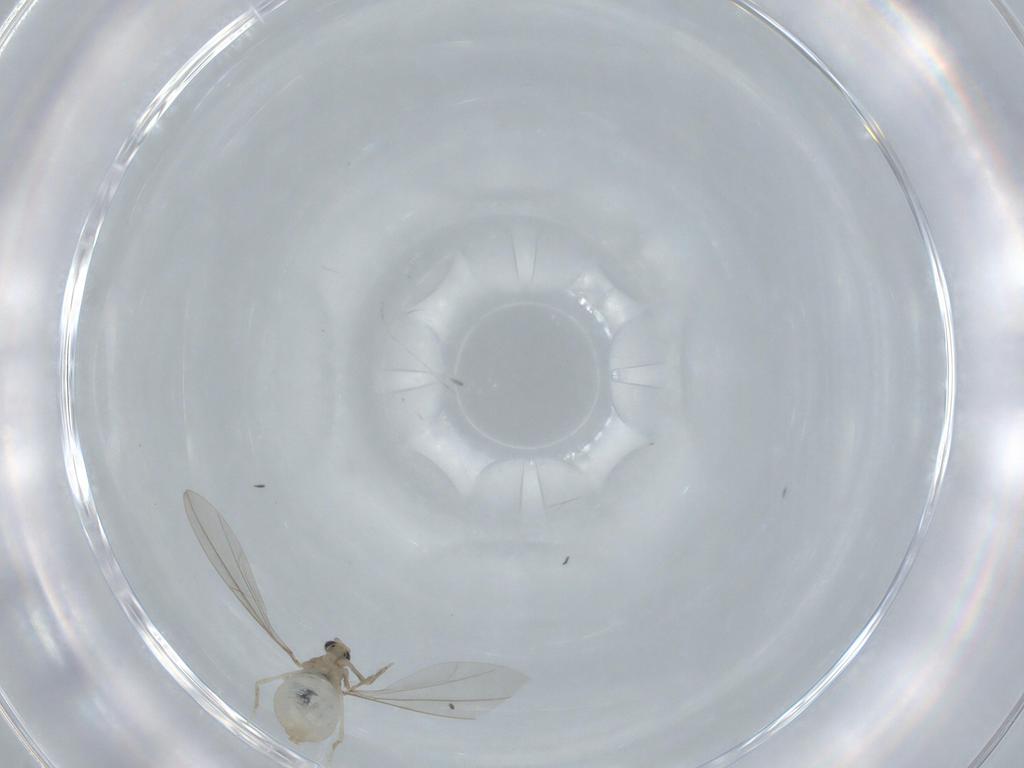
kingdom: Animalia
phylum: Arthropoda
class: Insecta
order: Diptera
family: Cecidomyiidae
